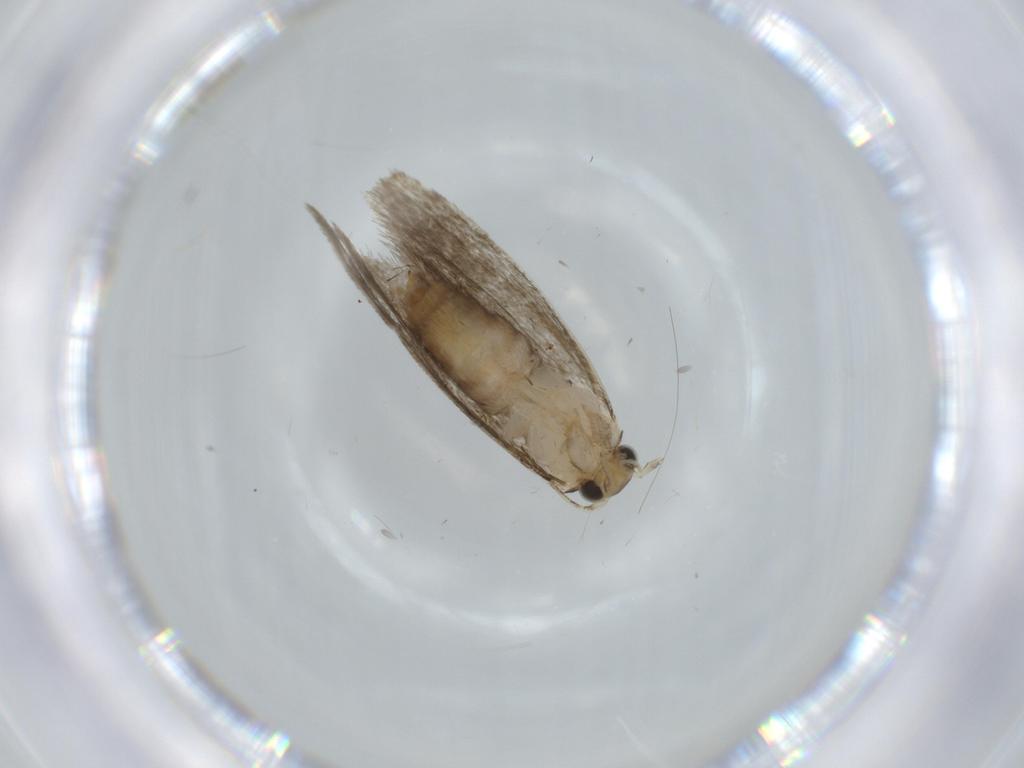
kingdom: Animalia
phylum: Arthropoda
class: Insecta
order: Lepidoptera
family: Tineidae
